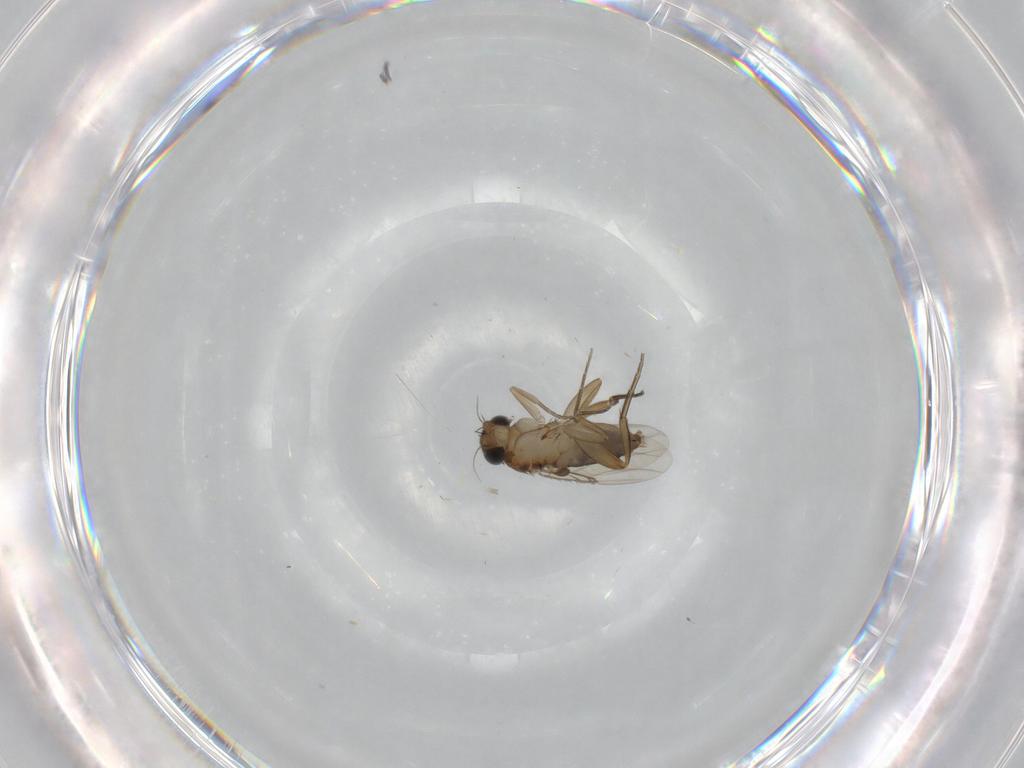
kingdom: Animalia
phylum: Arthropoda
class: Insecta
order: Diptera
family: Phoridae
